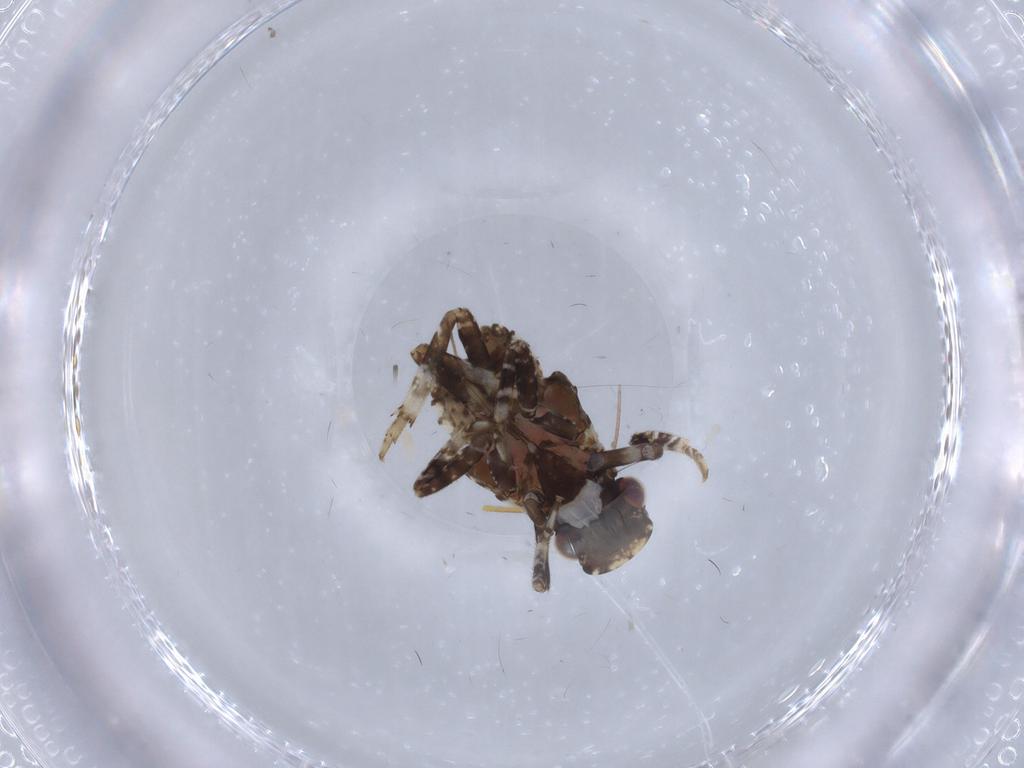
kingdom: Animalia
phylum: Arthropoda
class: Insecta
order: Hemiptera
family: Fulgoridae
